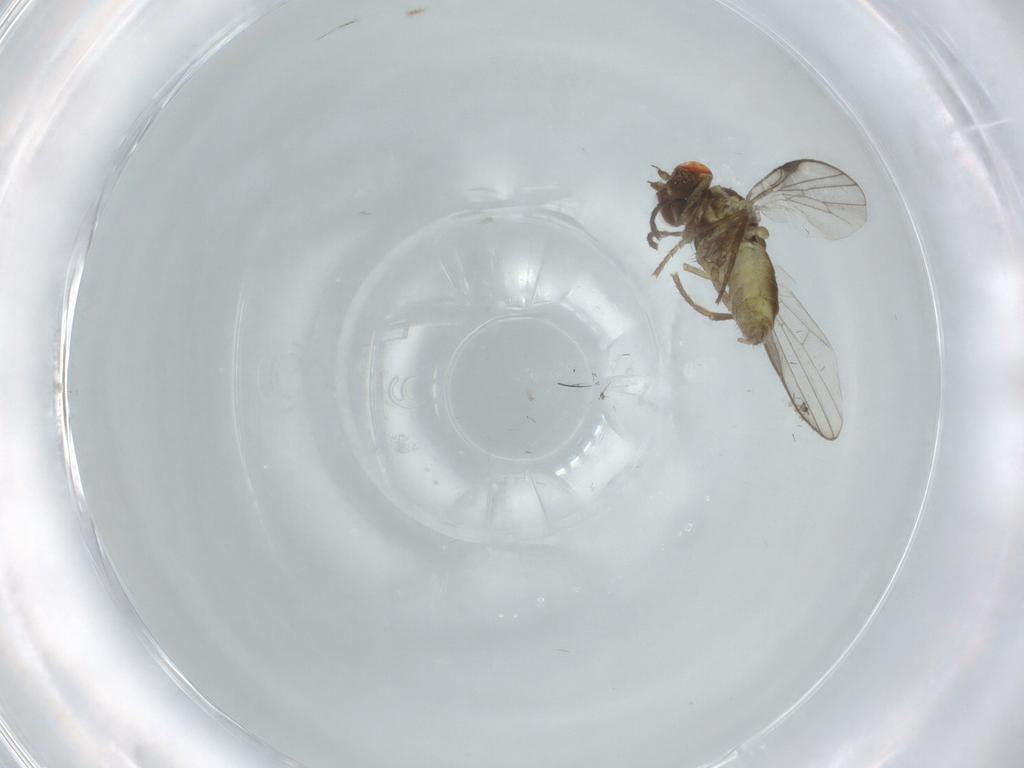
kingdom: Animalia
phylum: Arthropoda
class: Insecta
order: Diptera
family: Chamaemyiidae
